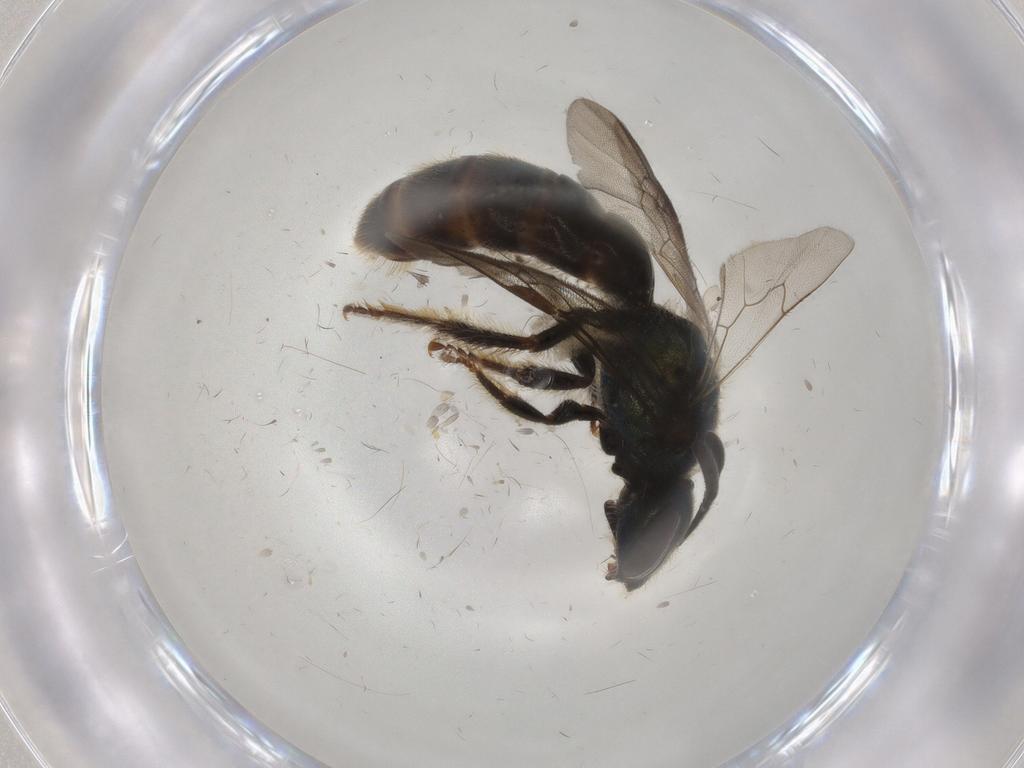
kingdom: Animalia
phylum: Arthropoda
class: Insecta
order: Hymenoptera
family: Halictidae
